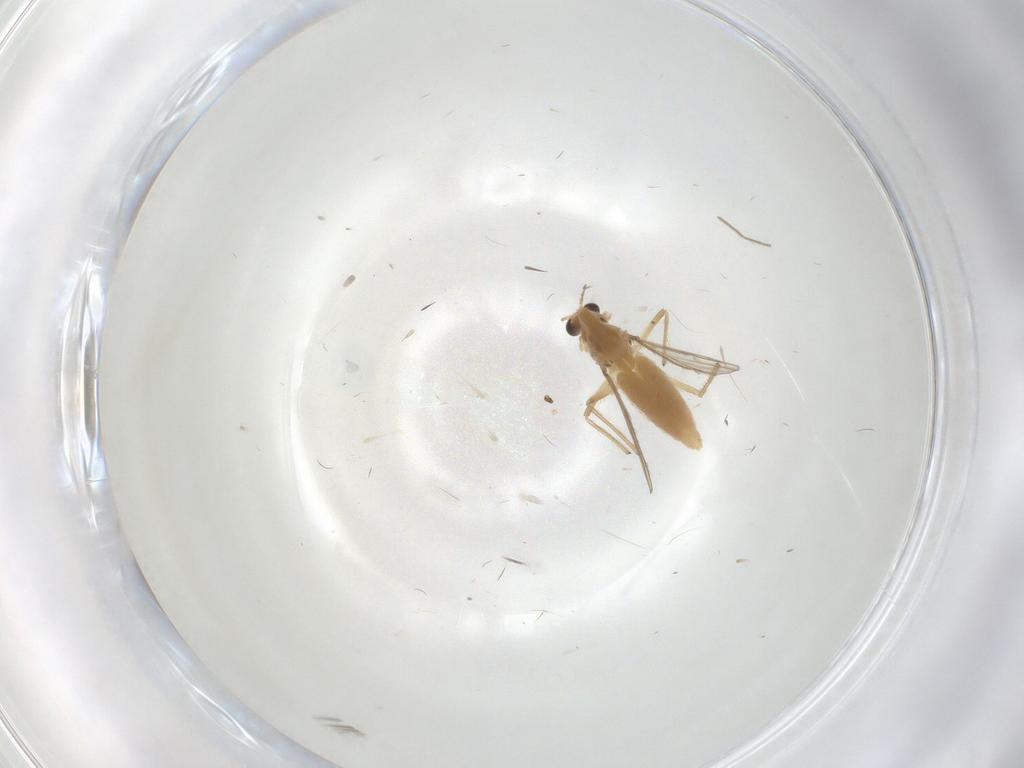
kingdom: Animalia
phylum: Arthropoda
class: Insecta
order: Diptera
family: Chironomidae
